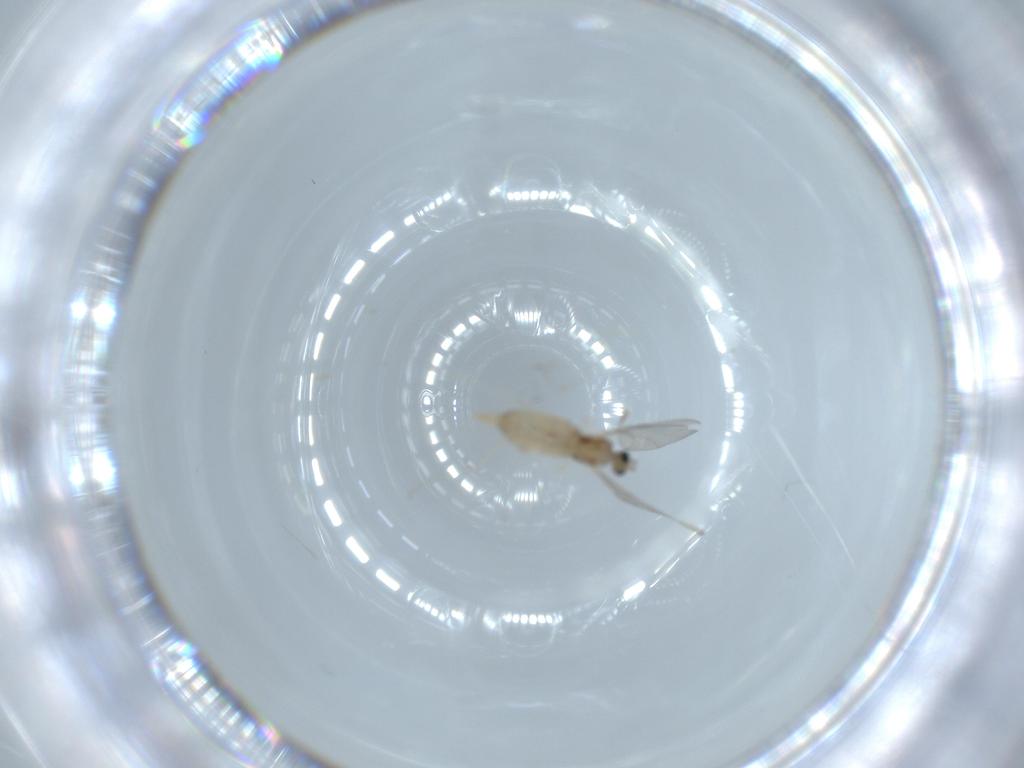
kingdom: Animalia
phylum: Arthropoda
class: Insecta
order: Diptera
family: Cecidomyiidae
